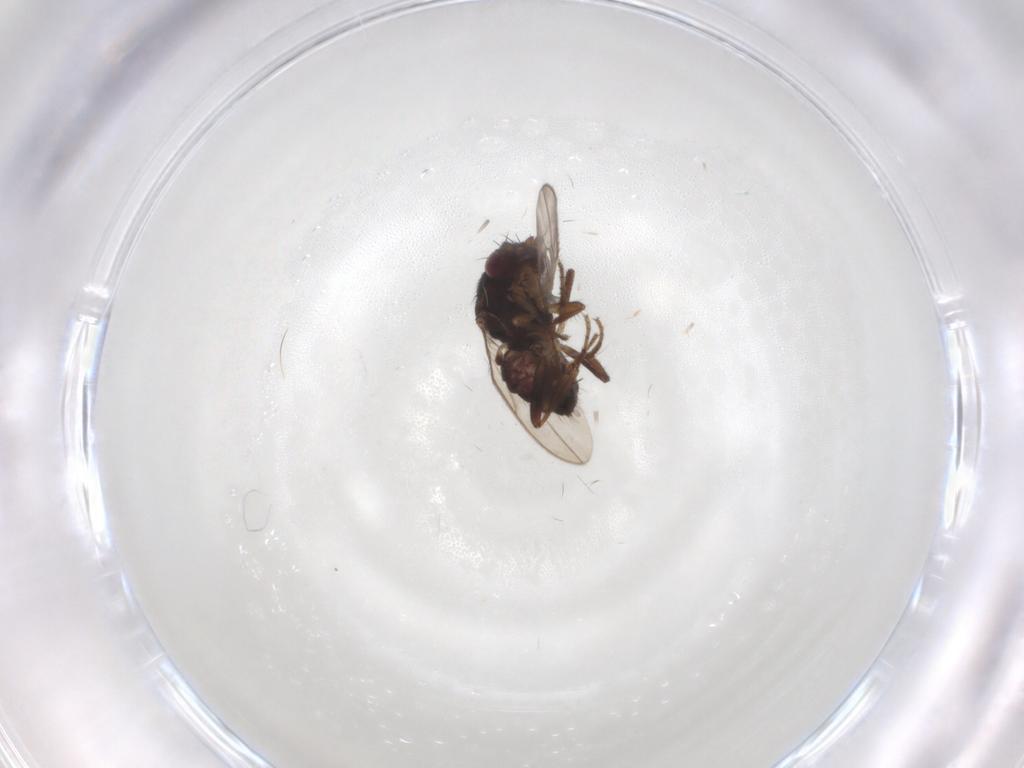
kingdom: Animalia
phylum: Arthropoda
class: Insecta
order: Diptera
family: Sphaeroceridae
